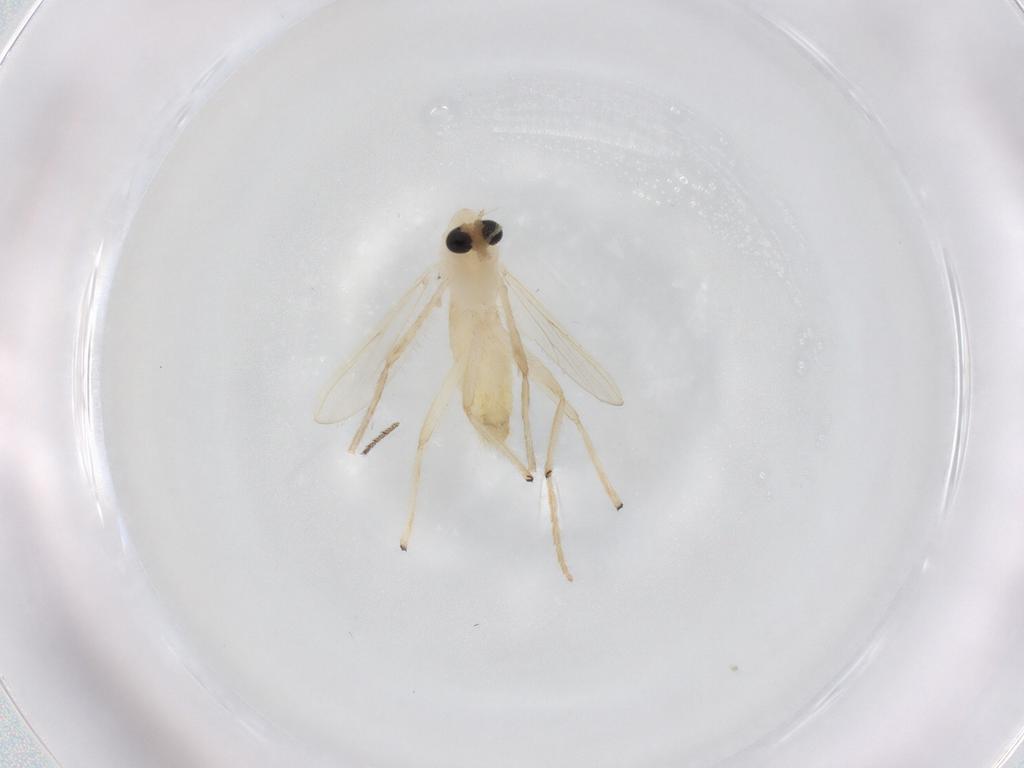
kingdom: Animalia
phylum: Arthropoda
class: Insecta
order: Diptera
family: Chironomidae
